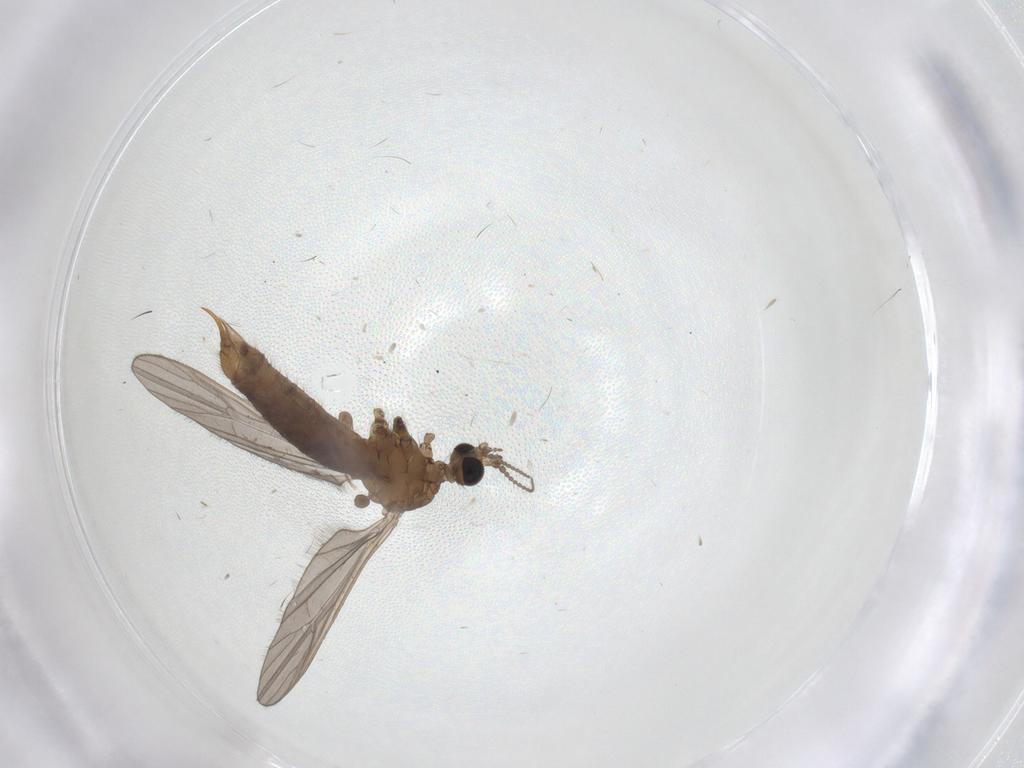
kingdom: Animalia
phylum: Arthropoda
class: Insecta
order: Diptera
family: Limoniidae
